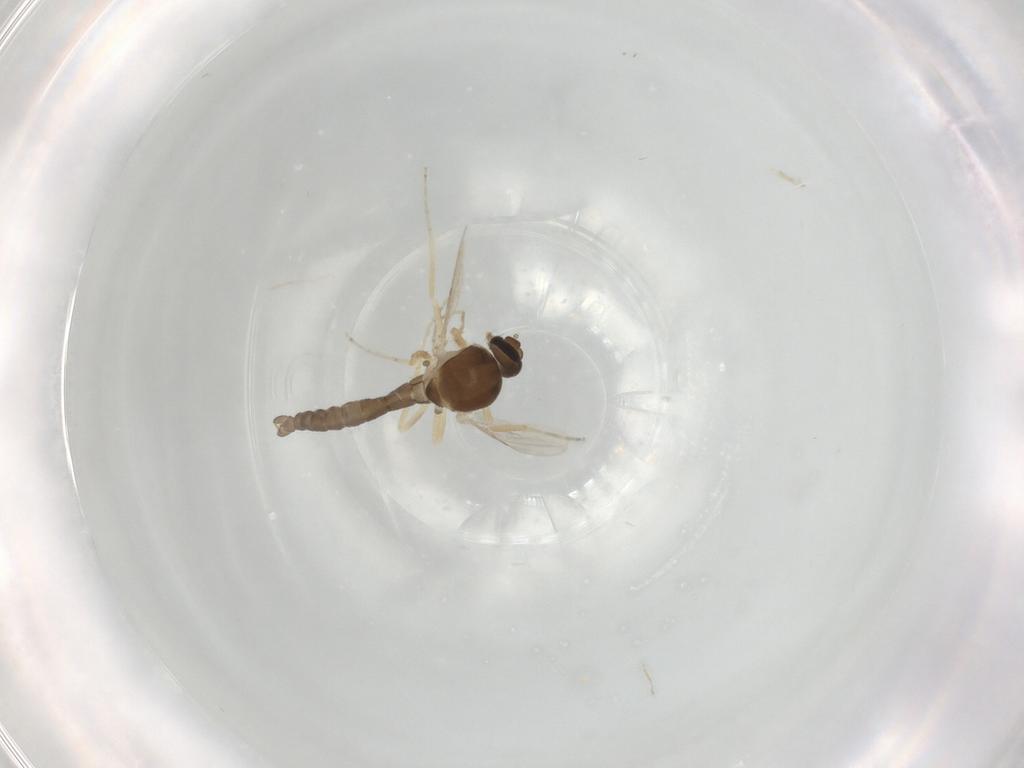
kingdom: Animalia
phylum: Arthropoda
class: Insecta
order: Diptera
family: Ceratopogonidae
